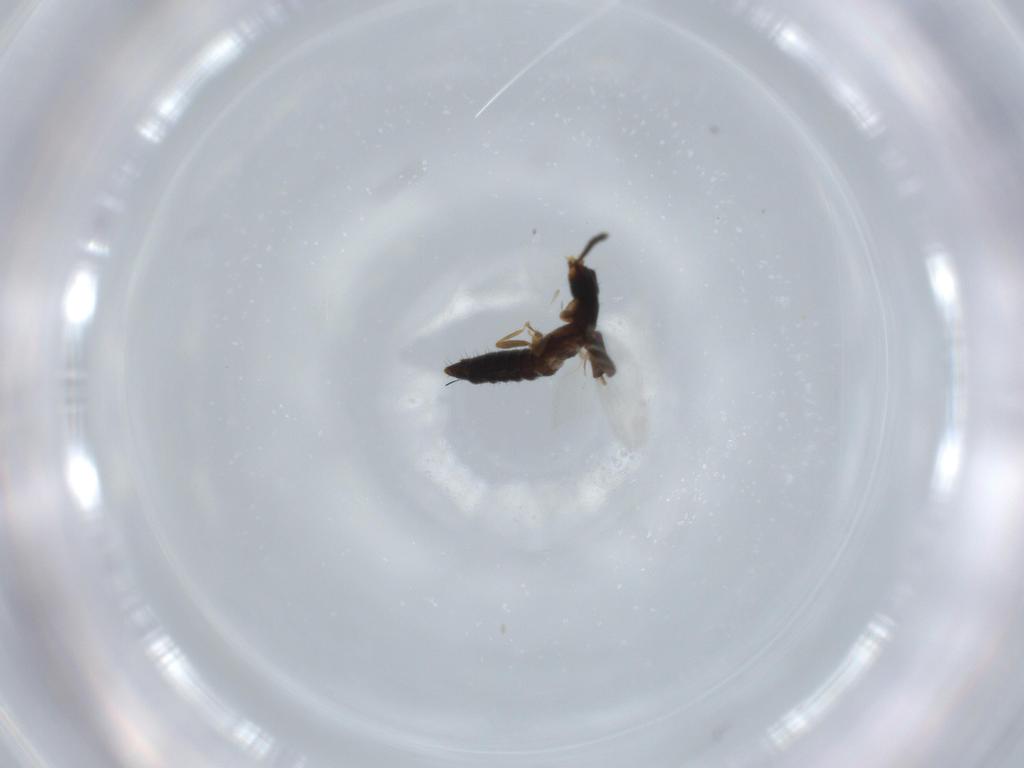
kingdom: Animalia
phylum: Arthropoda
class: Insecta
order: Coleoptera
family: Staphylinidae
